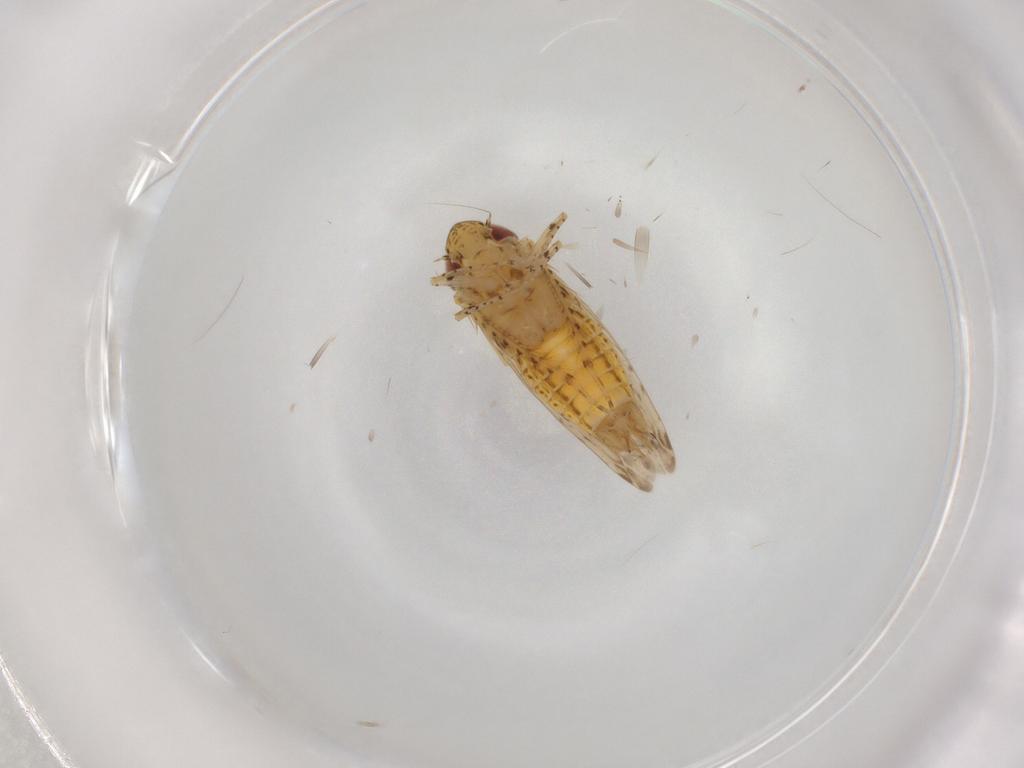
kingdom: Animalia
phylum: Arthropoda
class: Insecta
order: Hemiptera
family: Cicadellidae
